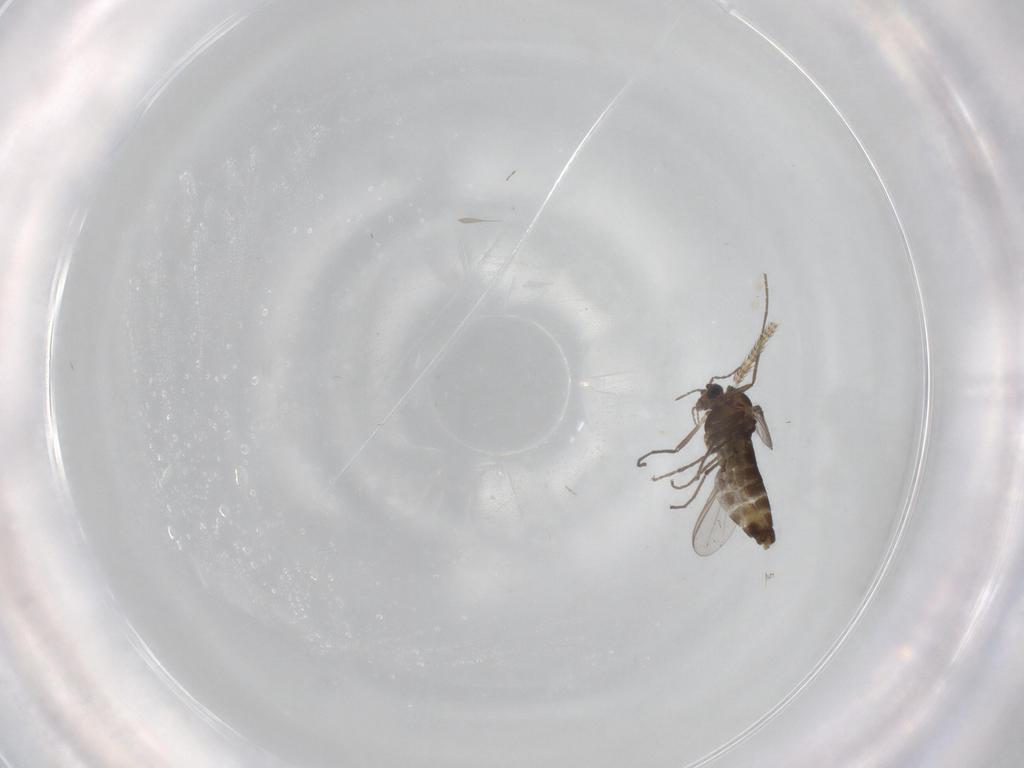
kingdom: Animalia
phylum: Arthropoda
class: Insecta
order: Diptera
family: Chironomidae
